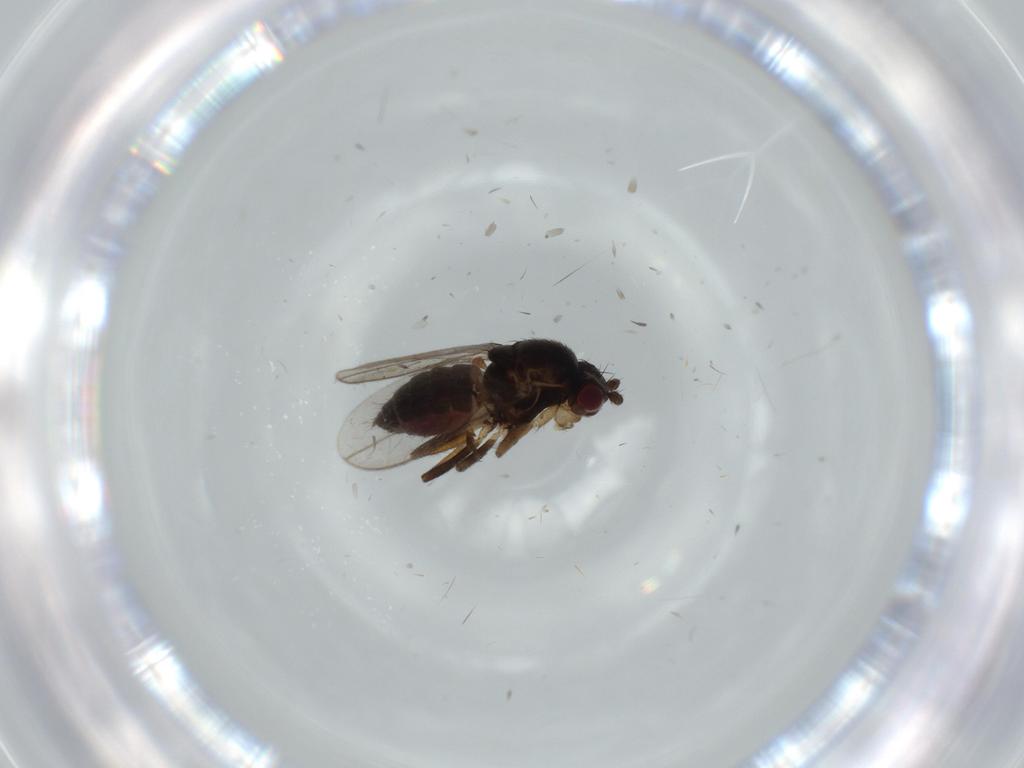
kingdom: Animalia
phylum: Arthropoda
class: Insecta
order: Diptera
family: Sphaeroceridae
